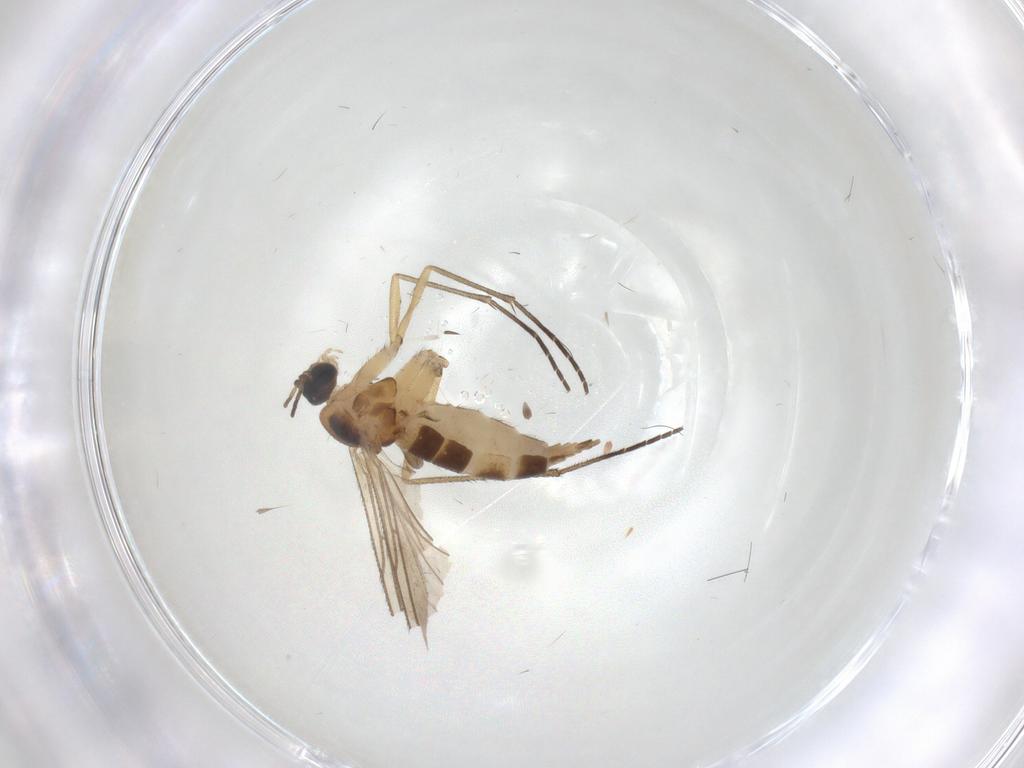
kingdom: Animalia
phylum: Arthropoda
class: Insecta
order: Diptera
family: Sciaridae
